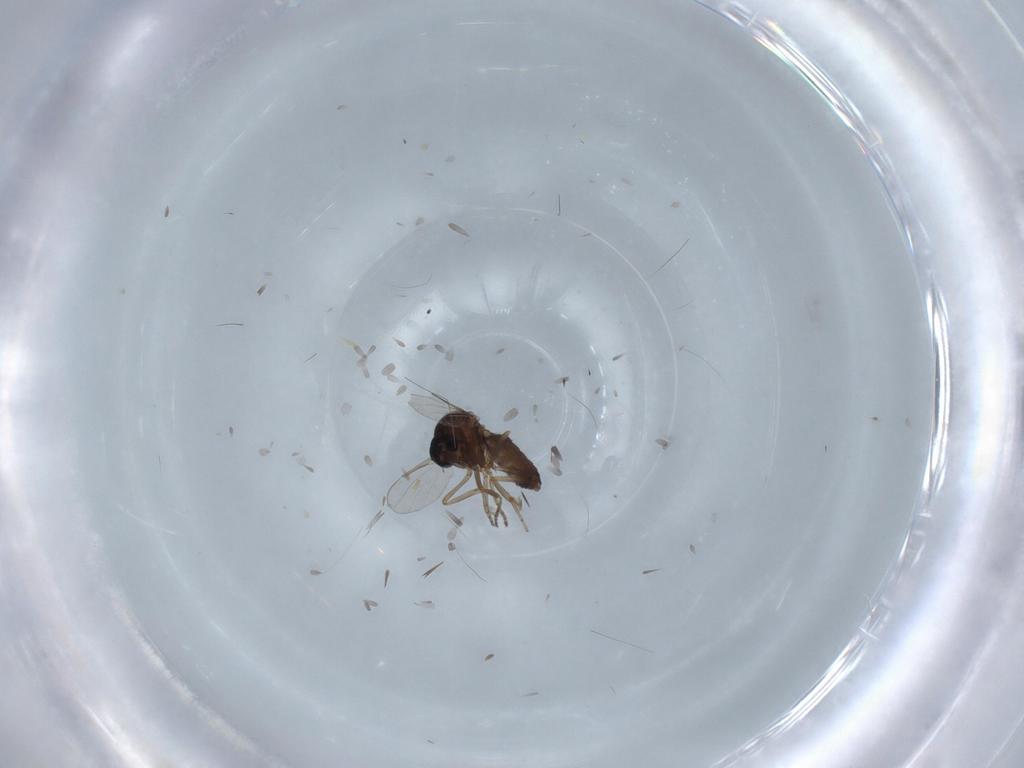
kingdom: Animalia
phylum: Arthropoda
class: Insecta
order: Diptera
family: Ceratopogonidae
